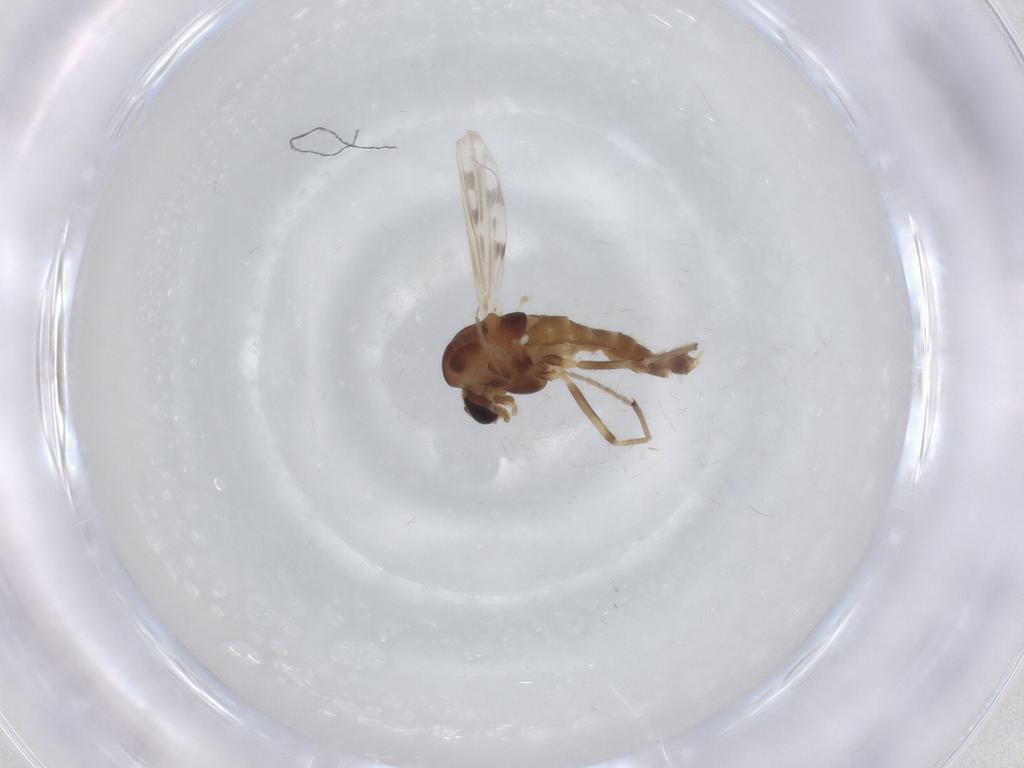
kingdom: Animalia
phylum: Arthropoda
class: Insecta
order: Diptera
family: Chironomidae
